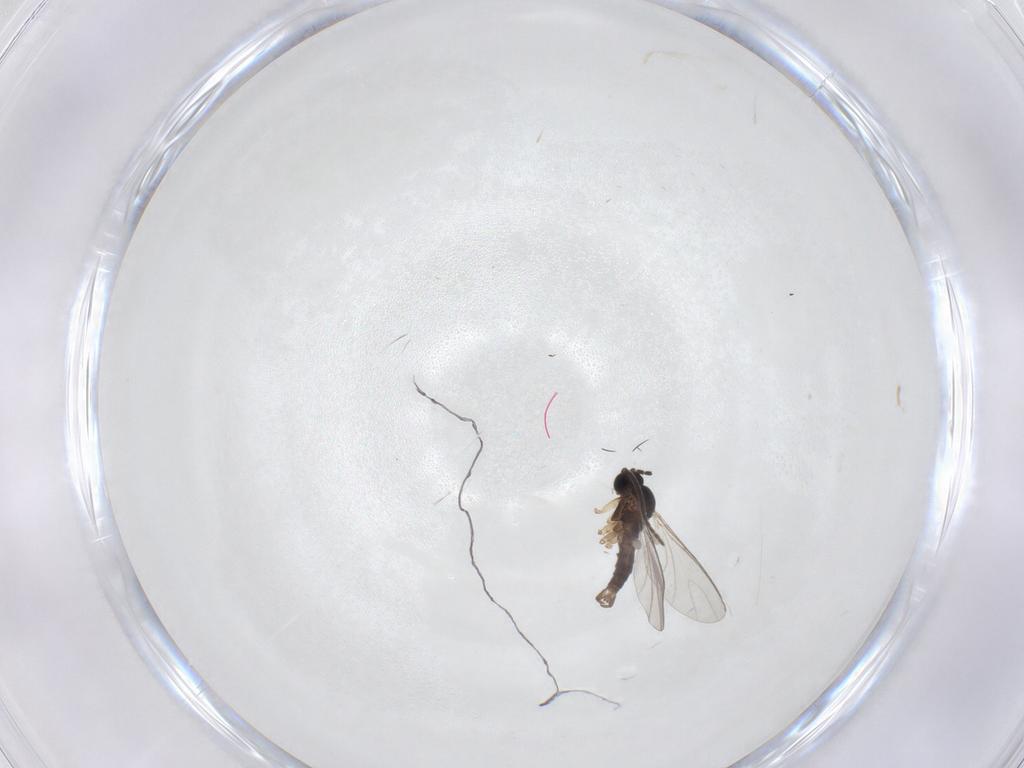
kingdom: Animalia
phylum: Arthropoda
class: Insecta
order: Diptera
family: Sciaridae
